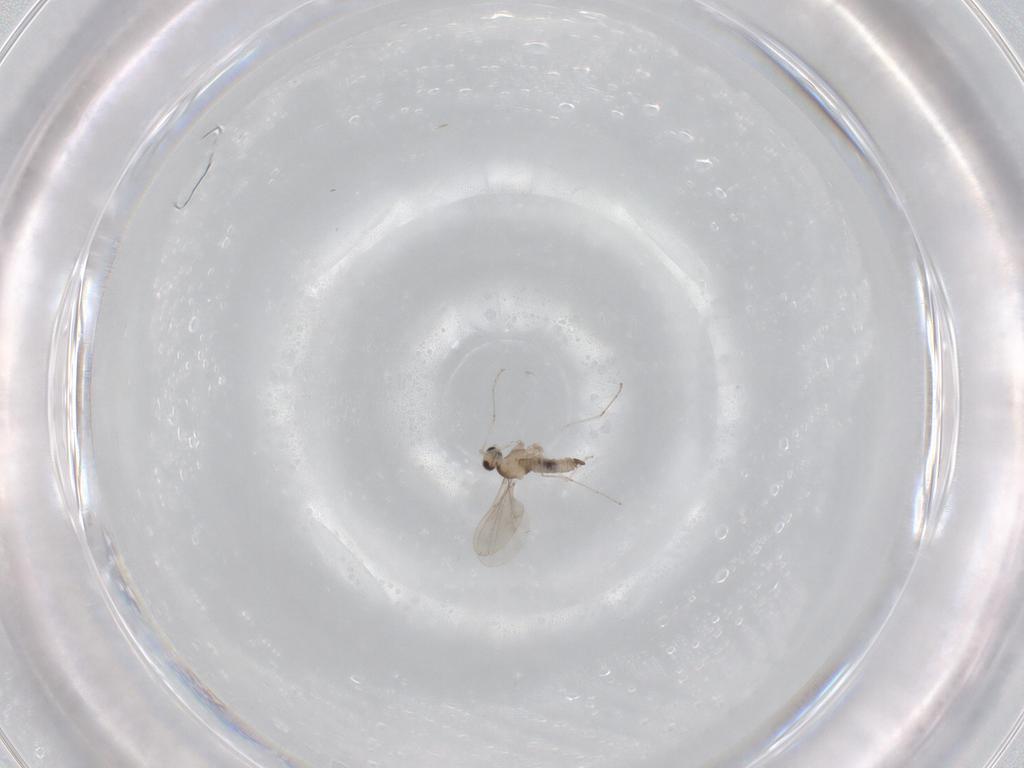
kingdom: Animalia
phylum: Arthropoda
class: Insecta
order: Diptera
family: Cecidomyiidae
